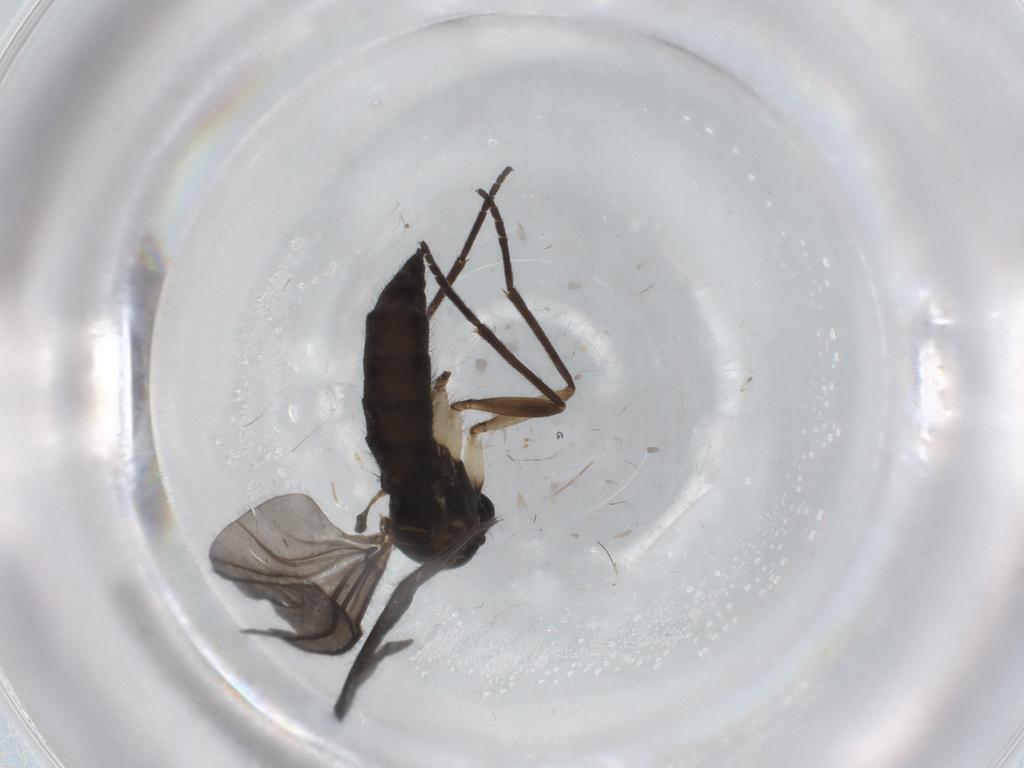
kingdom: Animalia
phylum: Arthropoda
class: Insecta
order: Diptera
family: Sciaridae
